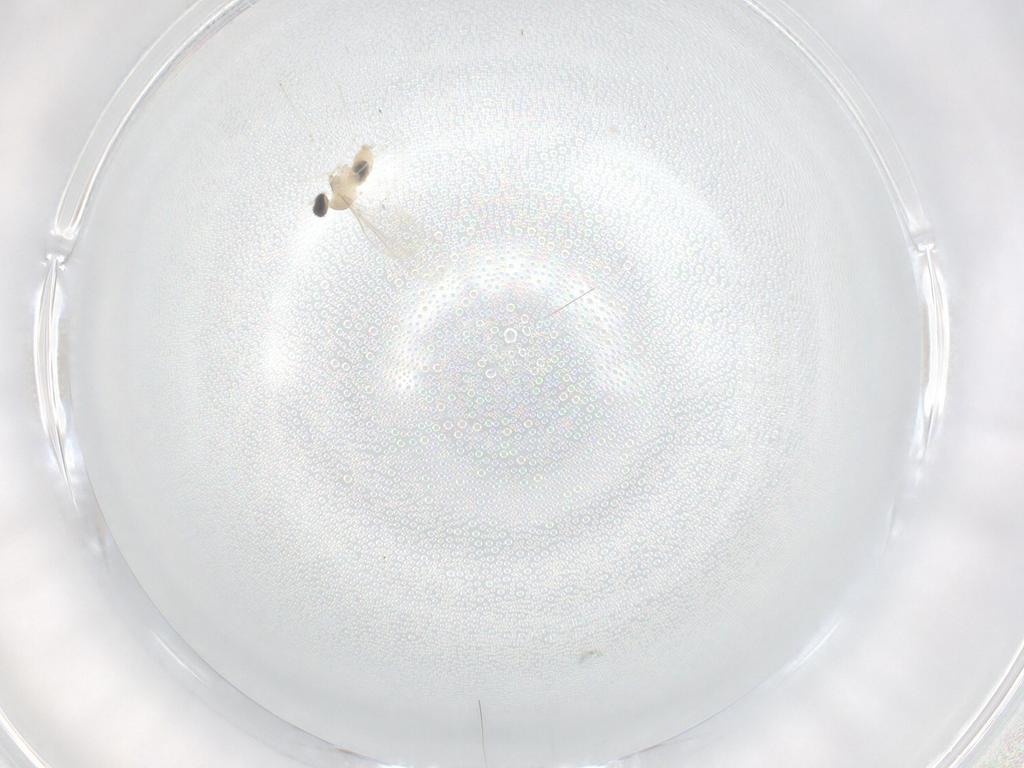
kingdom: Animalia
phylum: Arthropoda
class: Insecta
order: Diptera
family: Cecidomyiidae
